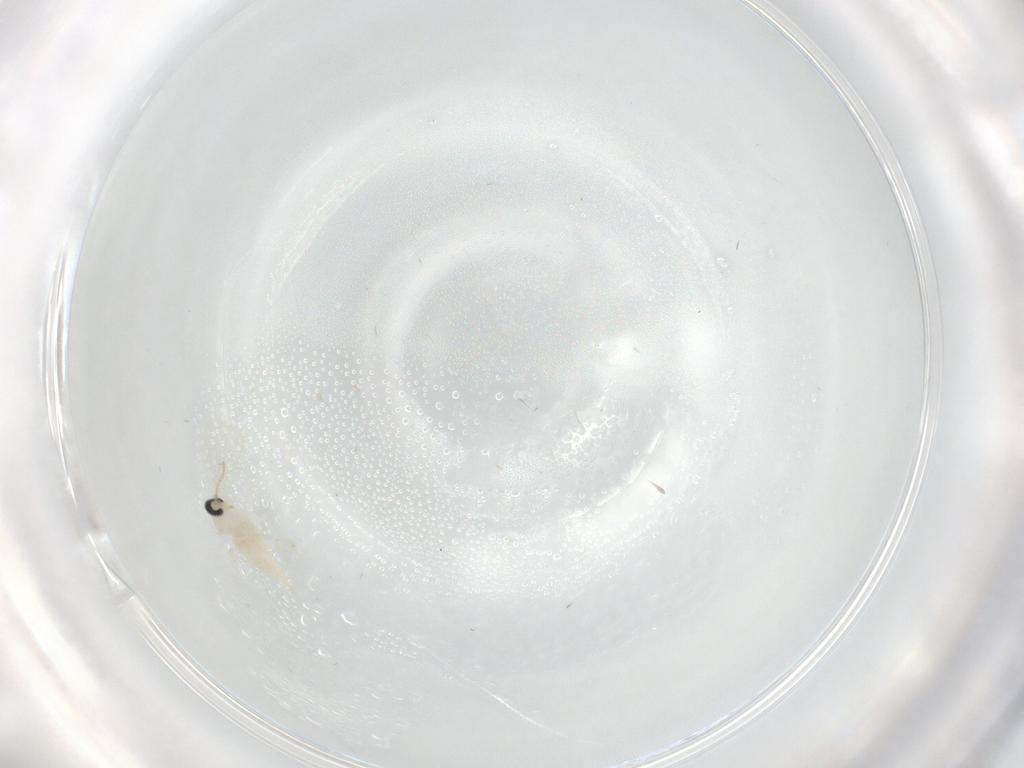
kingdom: Animalia
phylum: Arthropoda
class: Insecta
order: Diptera
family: Cecidomyiidae
